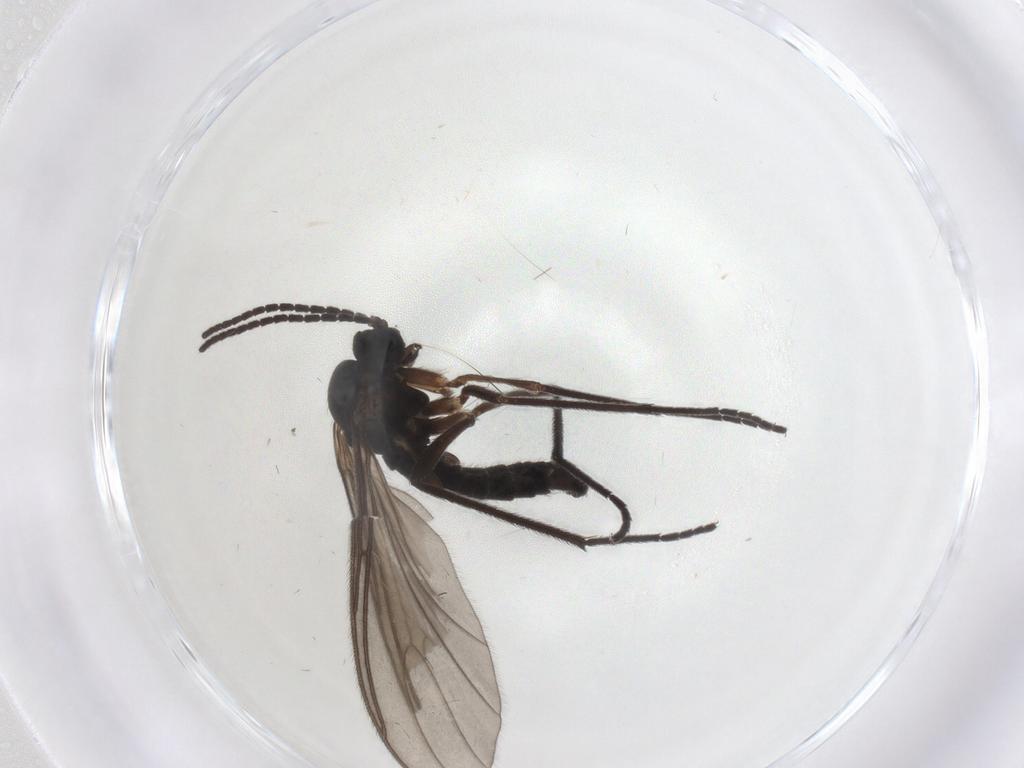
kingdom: Animalia
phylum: Arthropoda
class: Insecta
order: Diptera
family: Sciaridae
